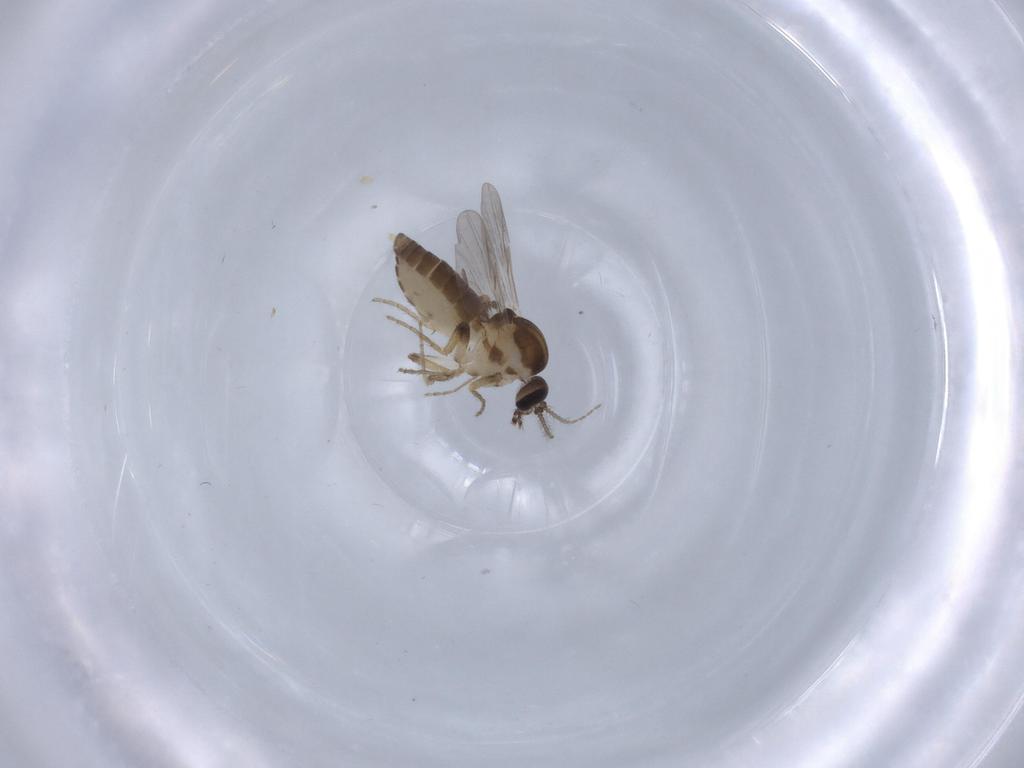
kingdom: Animalia
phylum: Arthropoda
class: Insecta
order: Diptera
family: Ceratopogonidae
